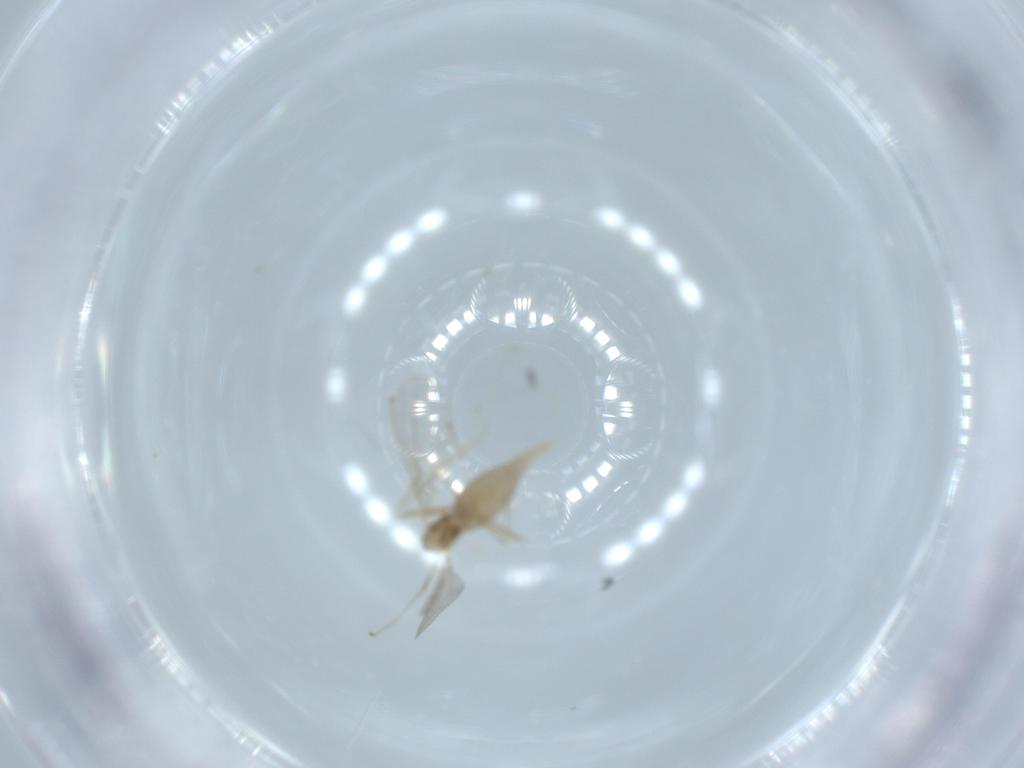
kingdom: Animalia
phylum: Arthropoda
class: Insecta
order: Diptera
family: Cecidomyiidae
